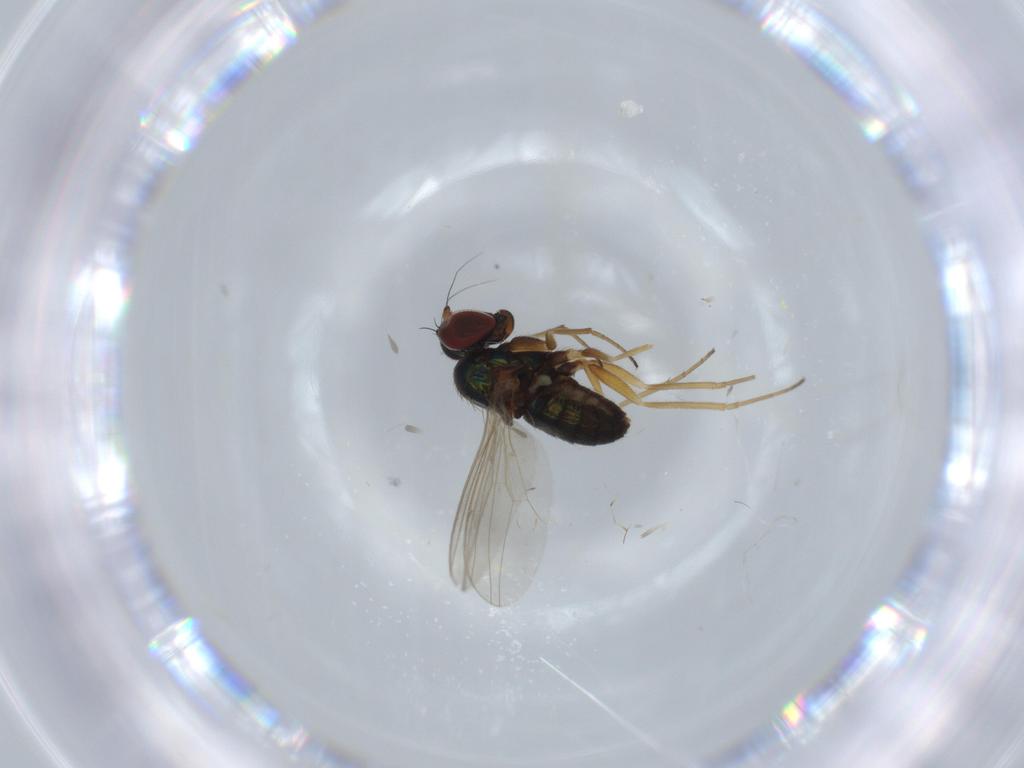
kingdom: Animalia
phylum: Arthropoda
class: Insecta
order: Diptera
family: Dolichopodidae
